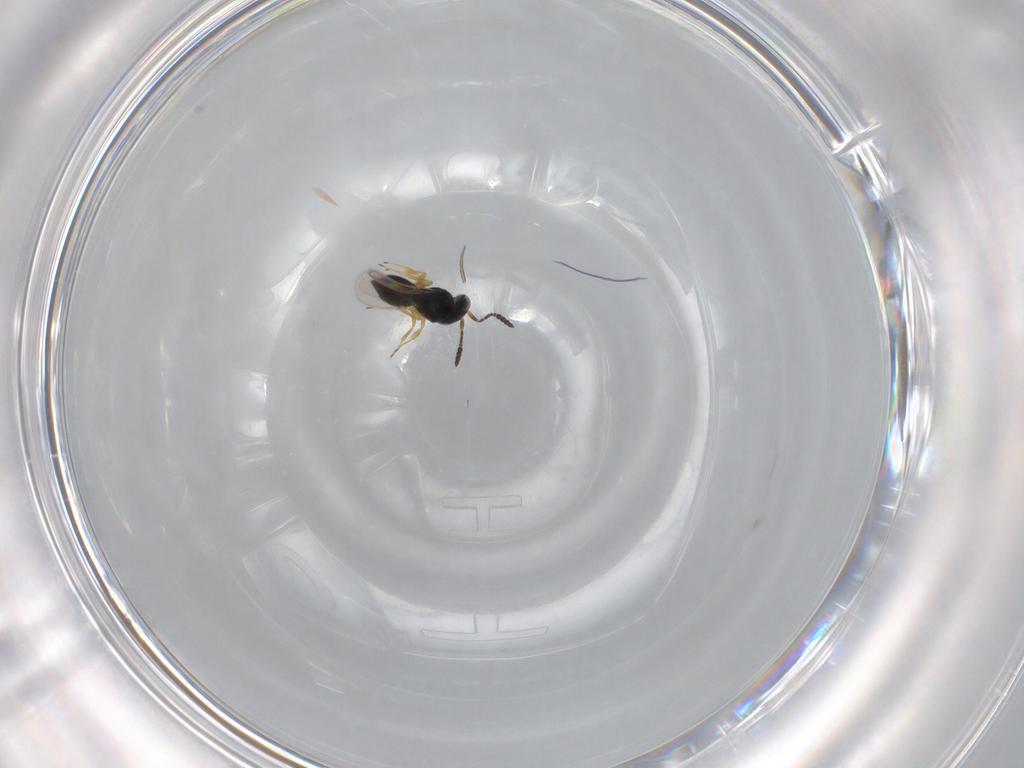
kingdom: Animalia
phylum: Arthropoda
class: Insecta
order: Hymenoptera
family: Scelionidae
